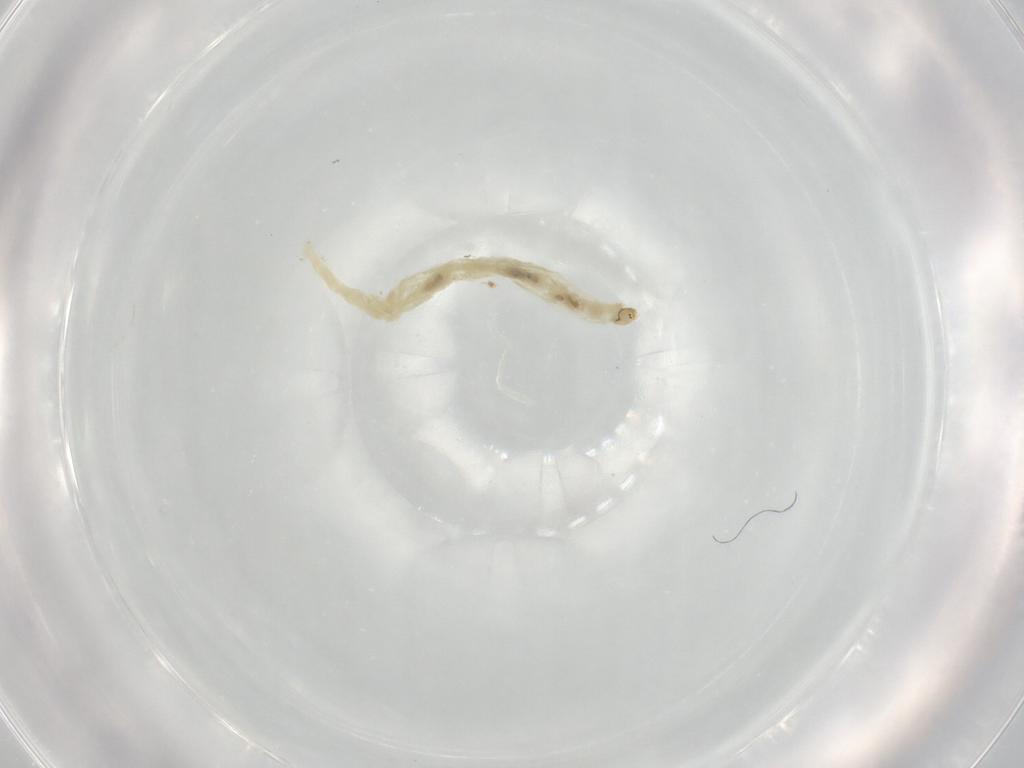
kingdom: Animalia
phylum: Arthropoda
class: Insecta
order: Diptera
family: Chironomidae
